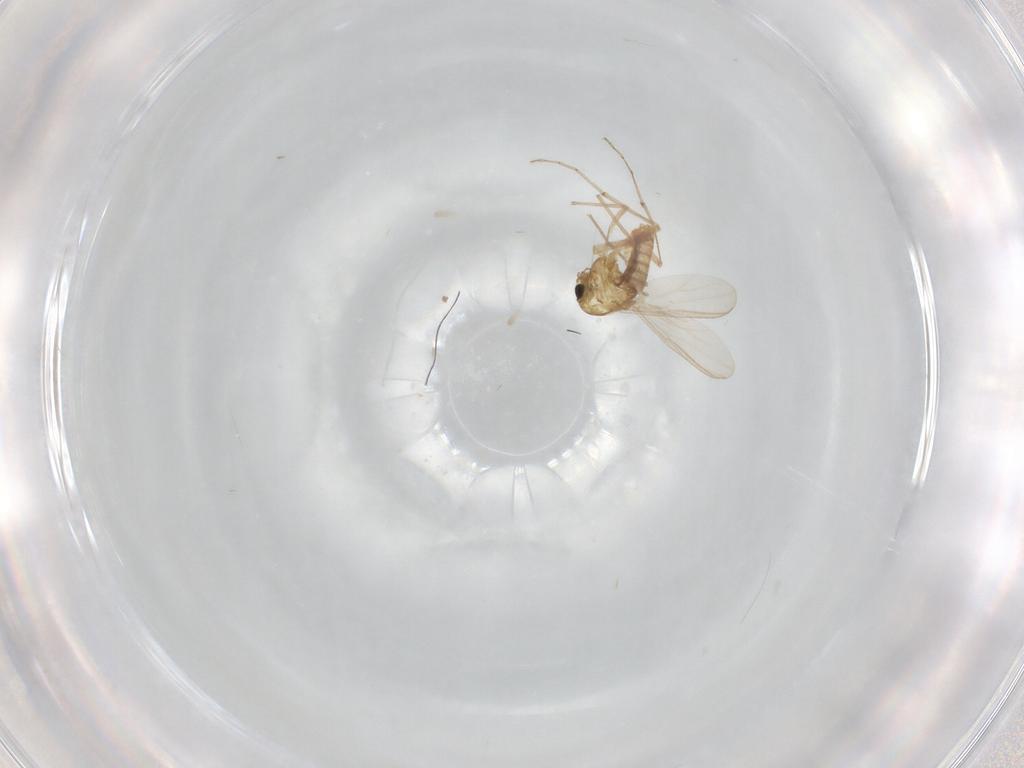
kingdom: Animalia
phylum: Arthropoda
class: Insecta
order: Diptera
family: Chironomidae
